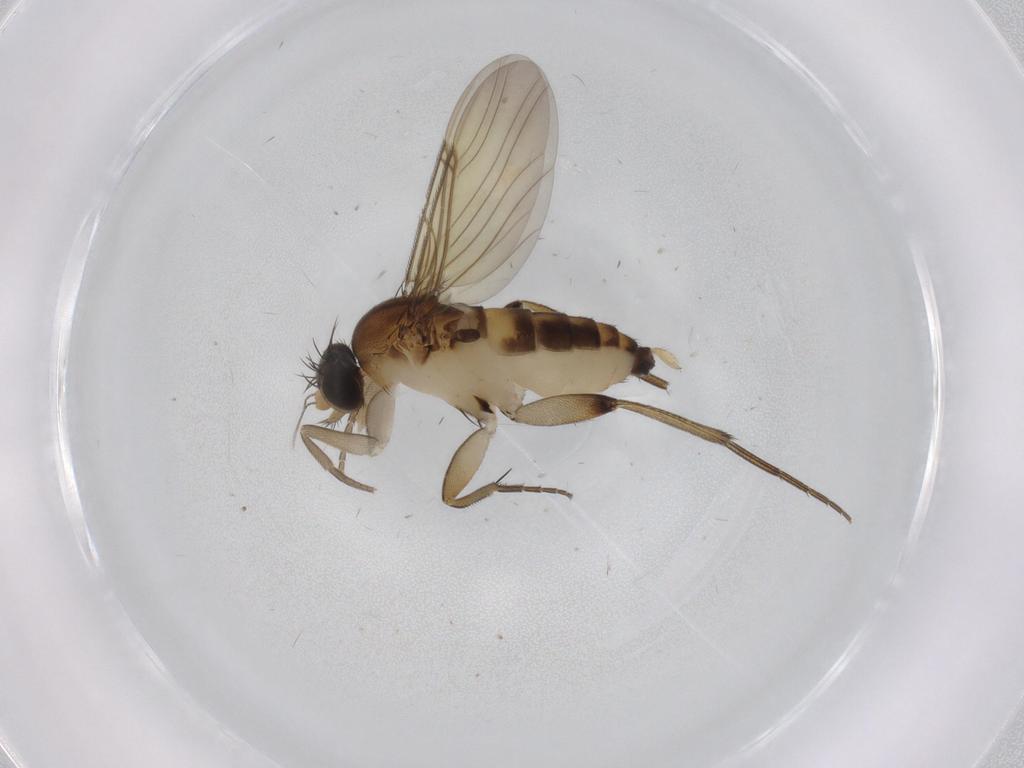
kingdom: Animalia
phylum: Arthropoda
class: Insecta
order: Diptera
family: Phoridae
